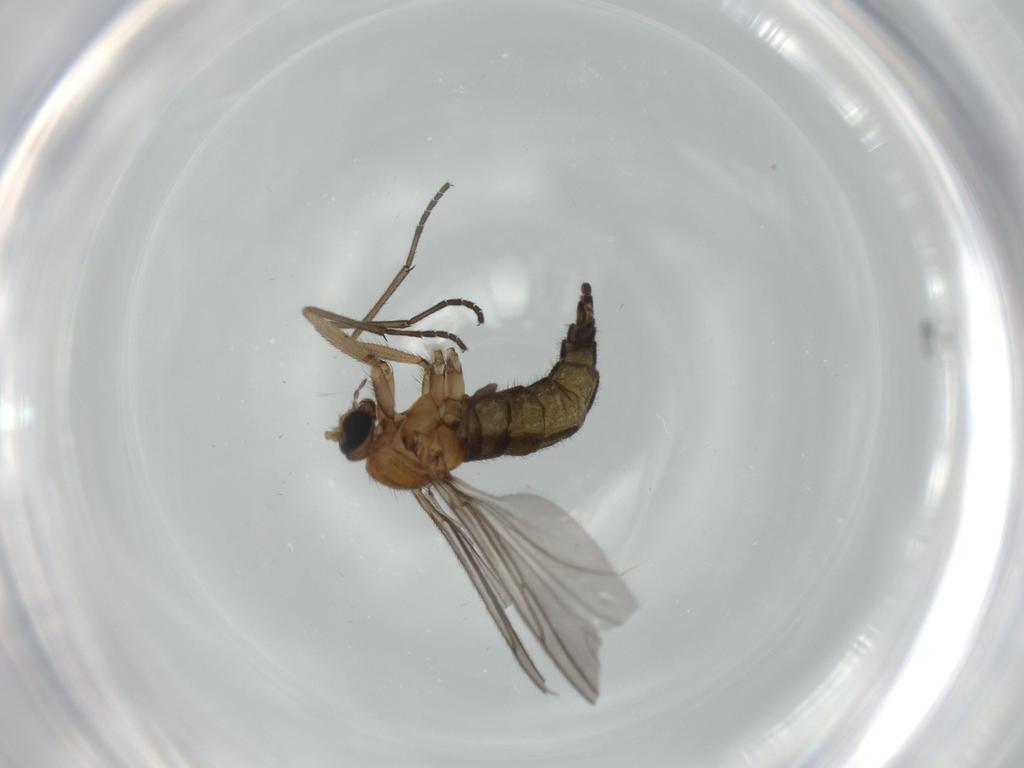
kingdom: Animalia
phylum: Arthropoda
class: Insecta
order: Diptera
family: Sciaridae
